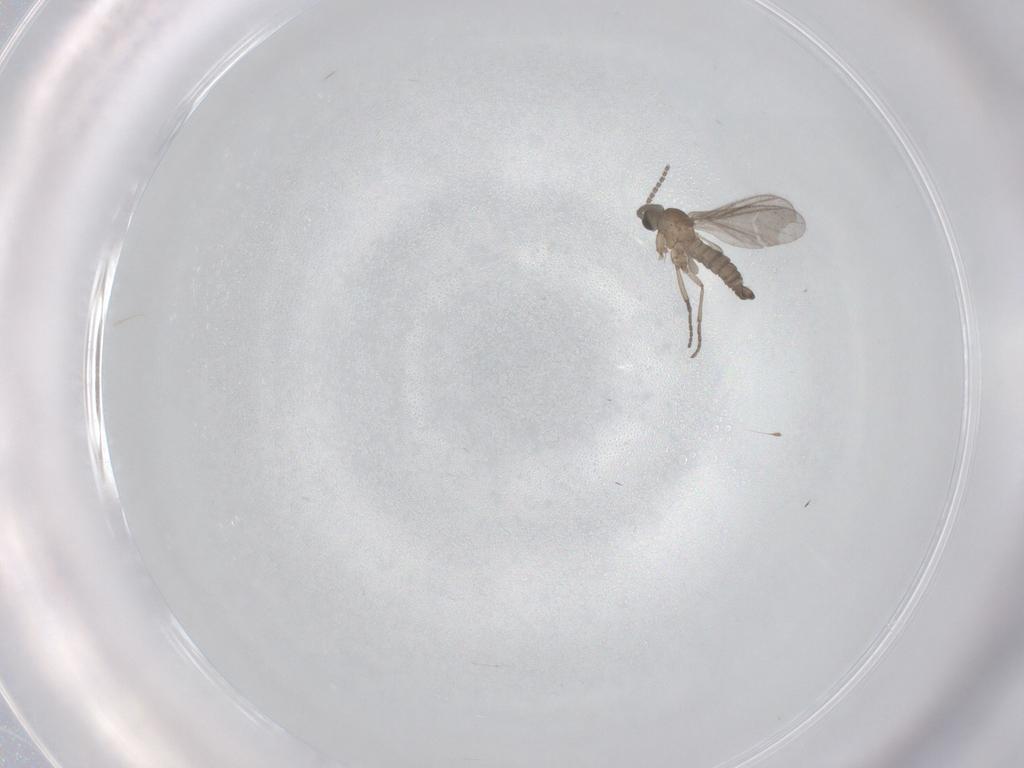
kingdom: Animalia
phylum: Arthropoda
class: Insecta
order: Diptera
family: Sciaridae
